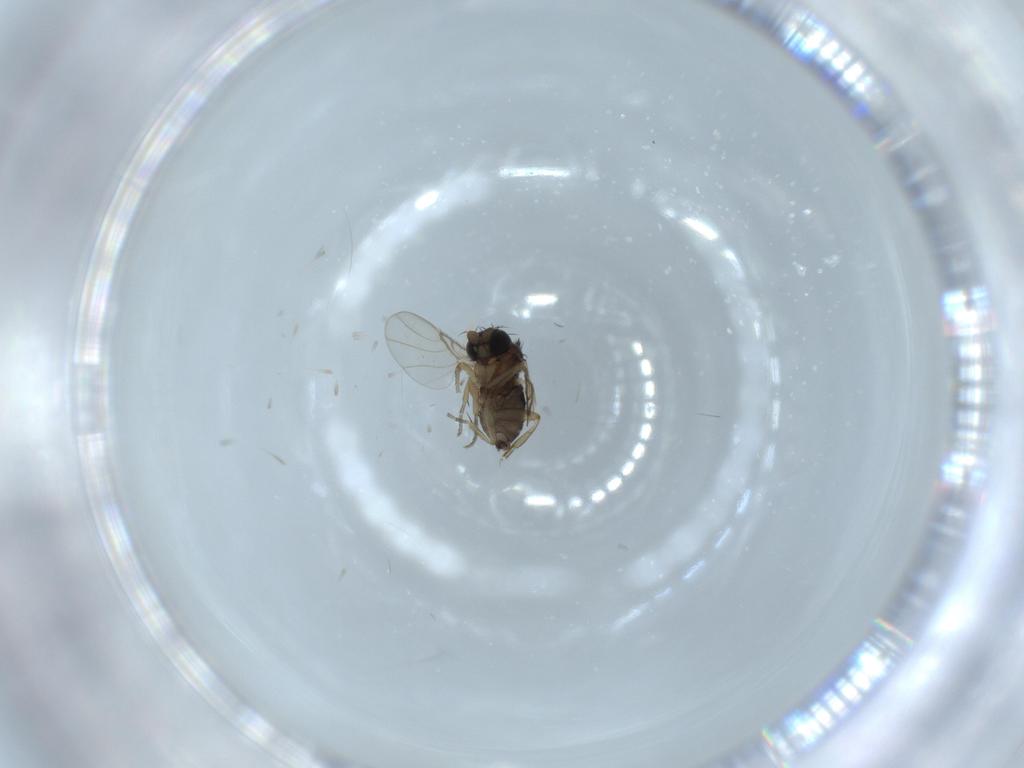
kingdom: Animalia
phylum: Arthropoda
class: Insecta
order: Diptera
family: Phoridae
